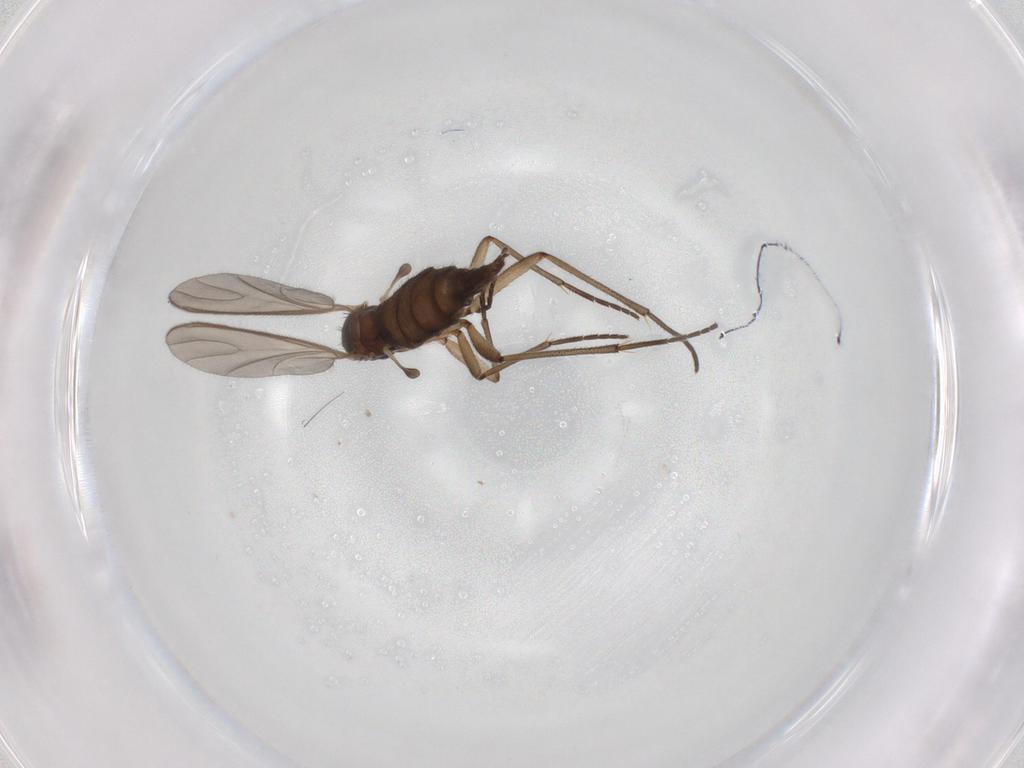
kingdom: Animalia
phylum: Arthropoda
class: Insecta
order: Diptera
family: Sciaridae
